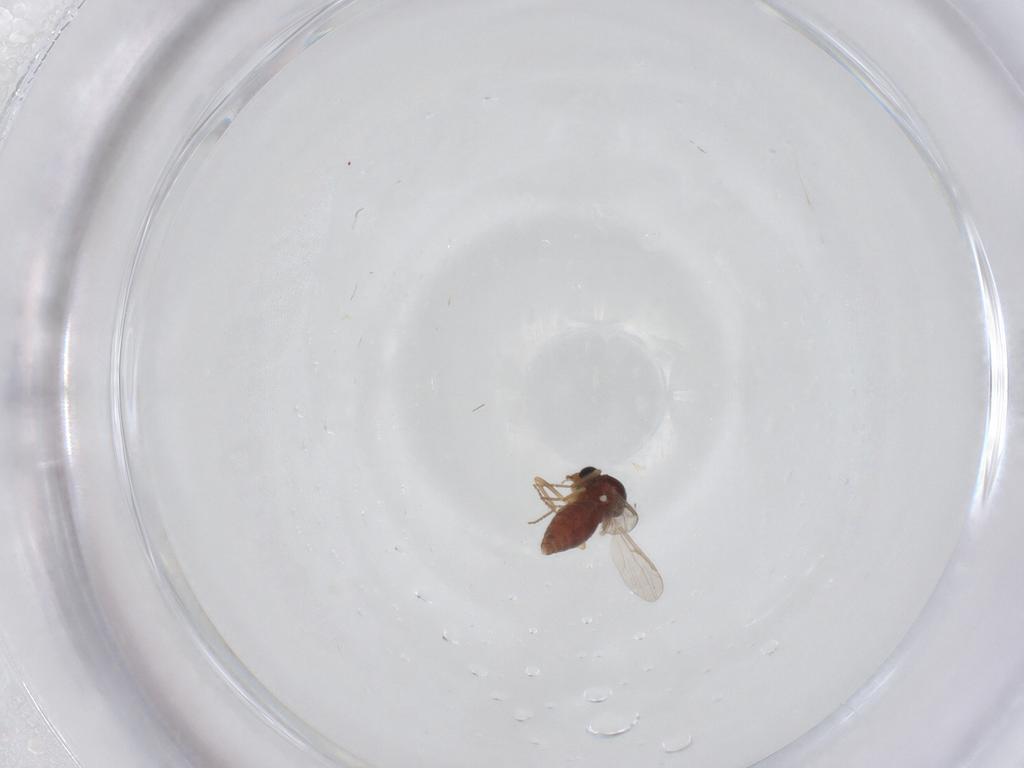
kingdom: Animalia
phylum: Arthropoda
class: Insecta
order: Diptera
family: Ceratopogonidae
